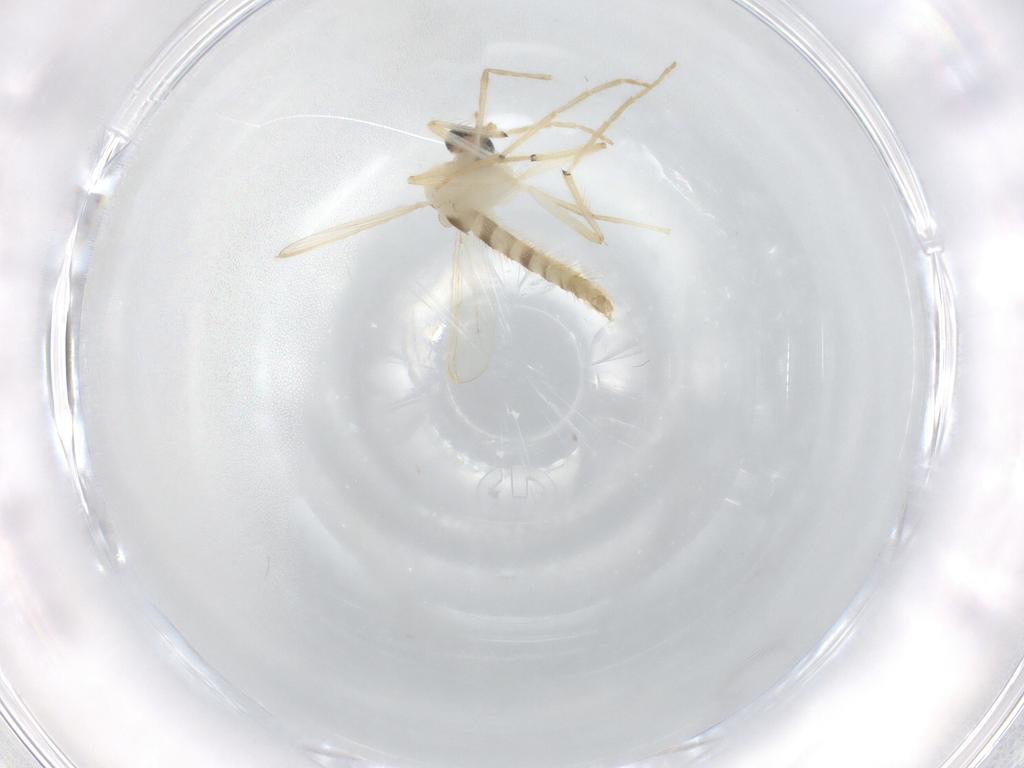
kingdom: Animalia
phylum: Arthropoda
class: Insecta
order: Diptera
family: Chironomidae
